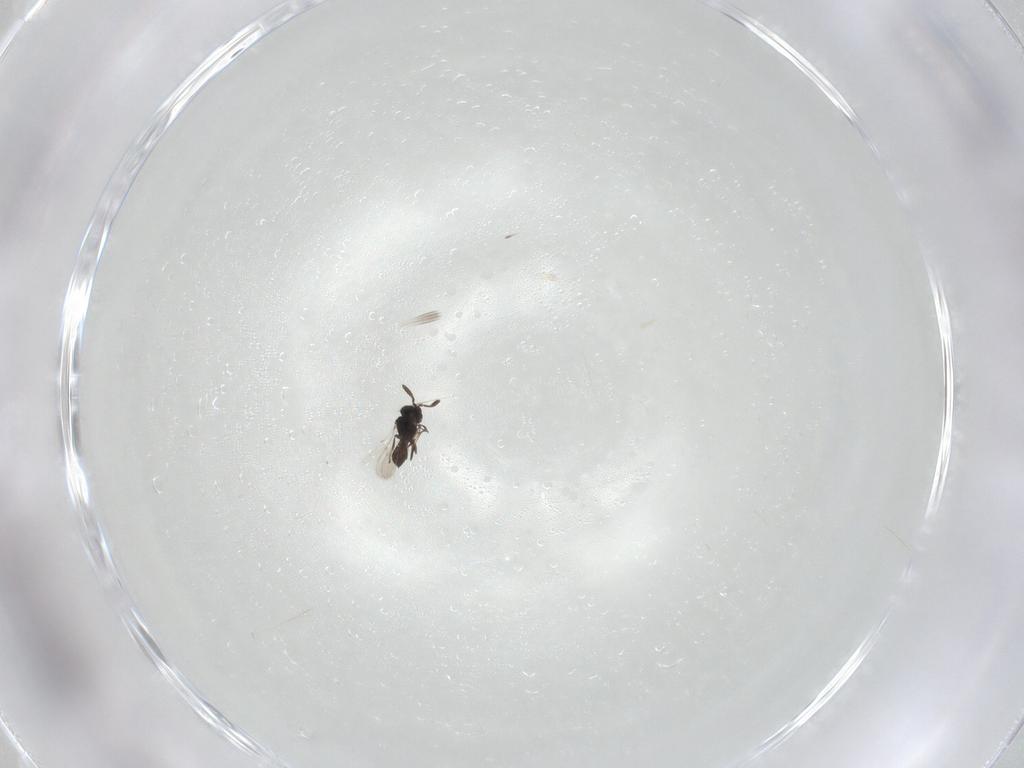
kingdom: Animalia
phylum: Arthropoda
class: Insecta
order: Hymenoptera
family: Scelionidae
